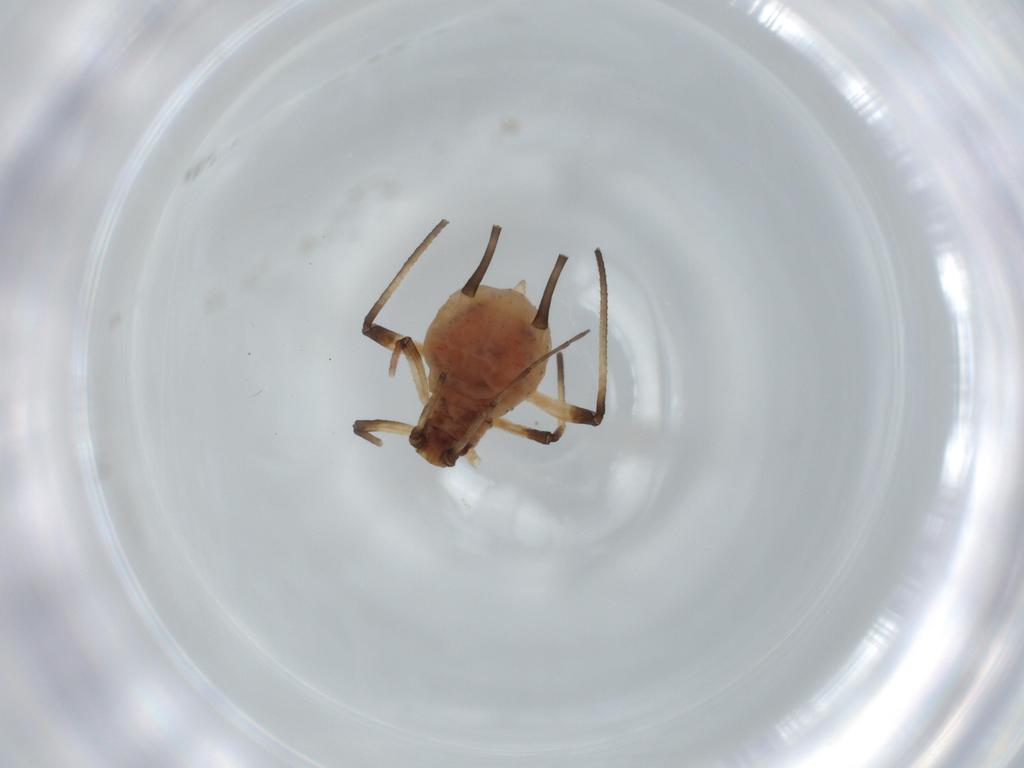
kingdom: Animalia
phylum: Arthropoda
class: Insecta
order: Hemiptera
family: Aphididae
